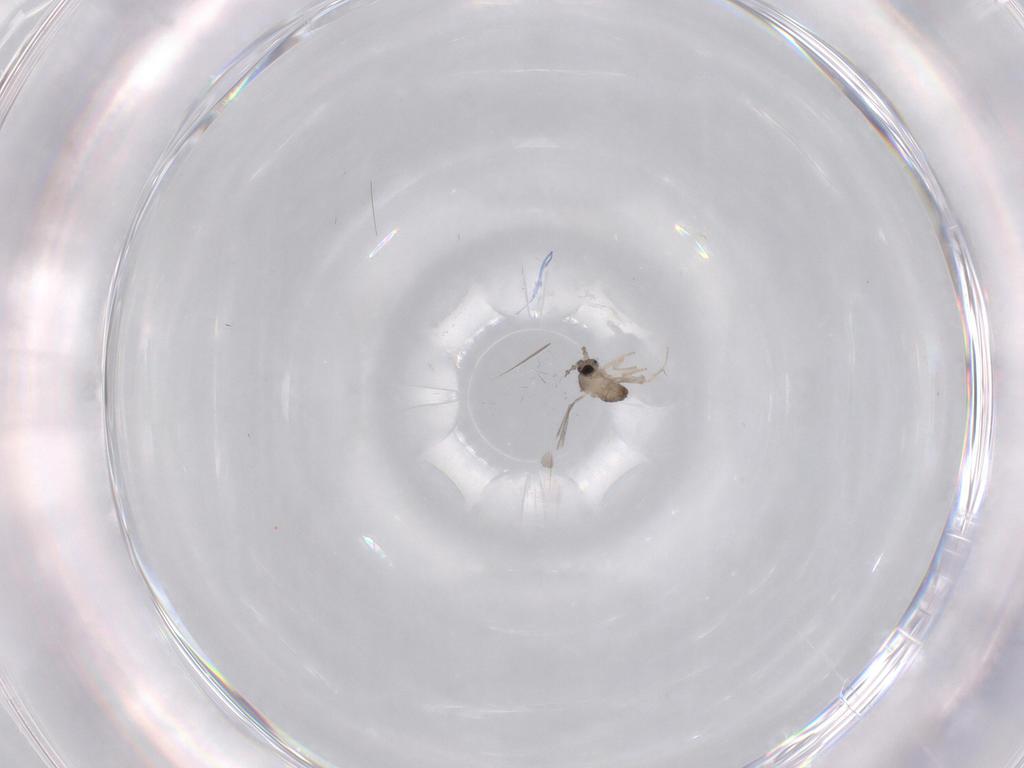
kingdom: Animalia
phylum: Arthropoda
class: Insecta
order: Diptera
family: Cecidomyiidae
